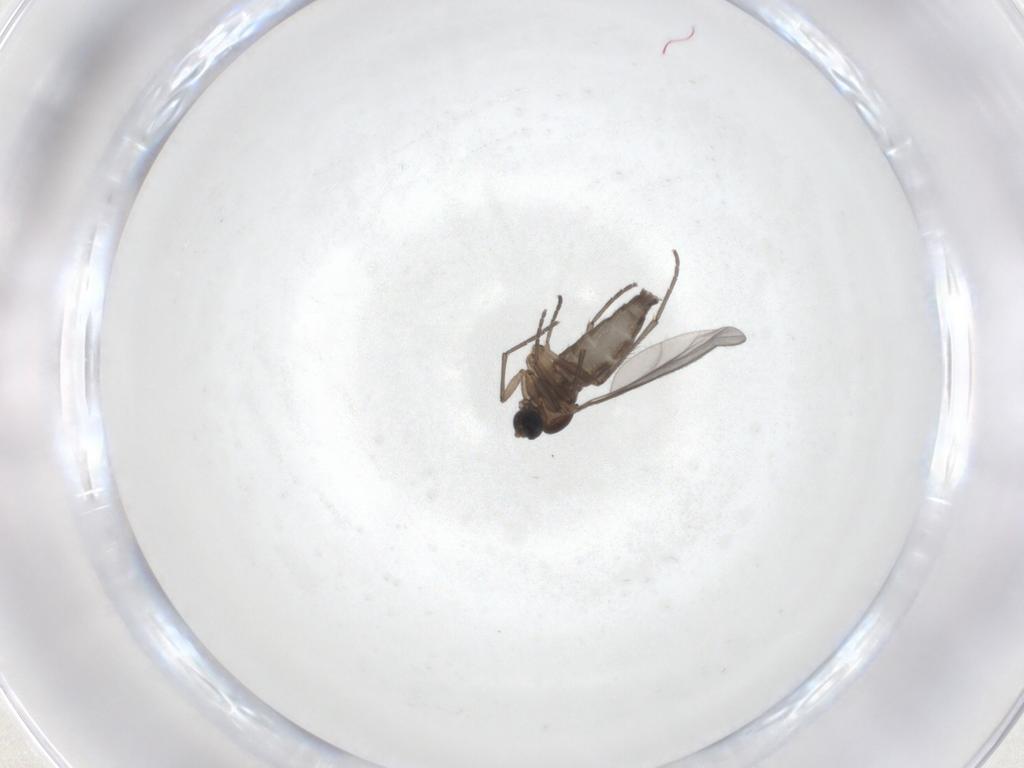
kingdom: Animalia
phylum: Arthropoda
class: Insecta
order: Diptera
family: Sciaridae
